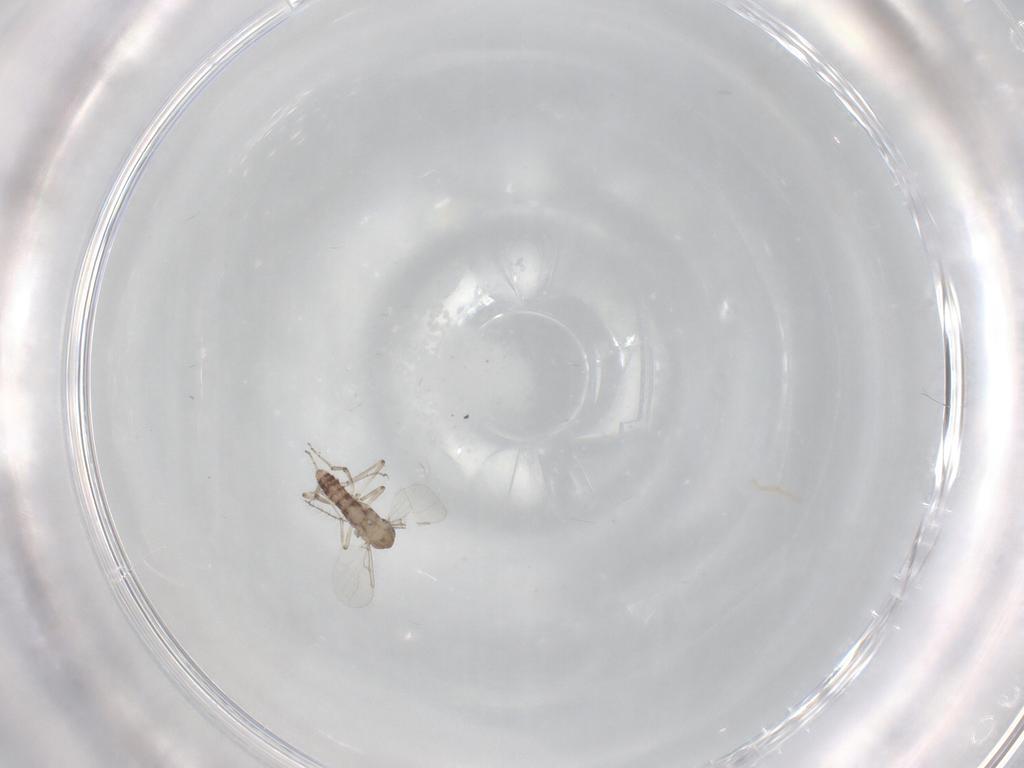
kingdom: Animalia
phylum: Arthropoda
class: Insecta
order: Diptera
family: Ceratopogonidae
